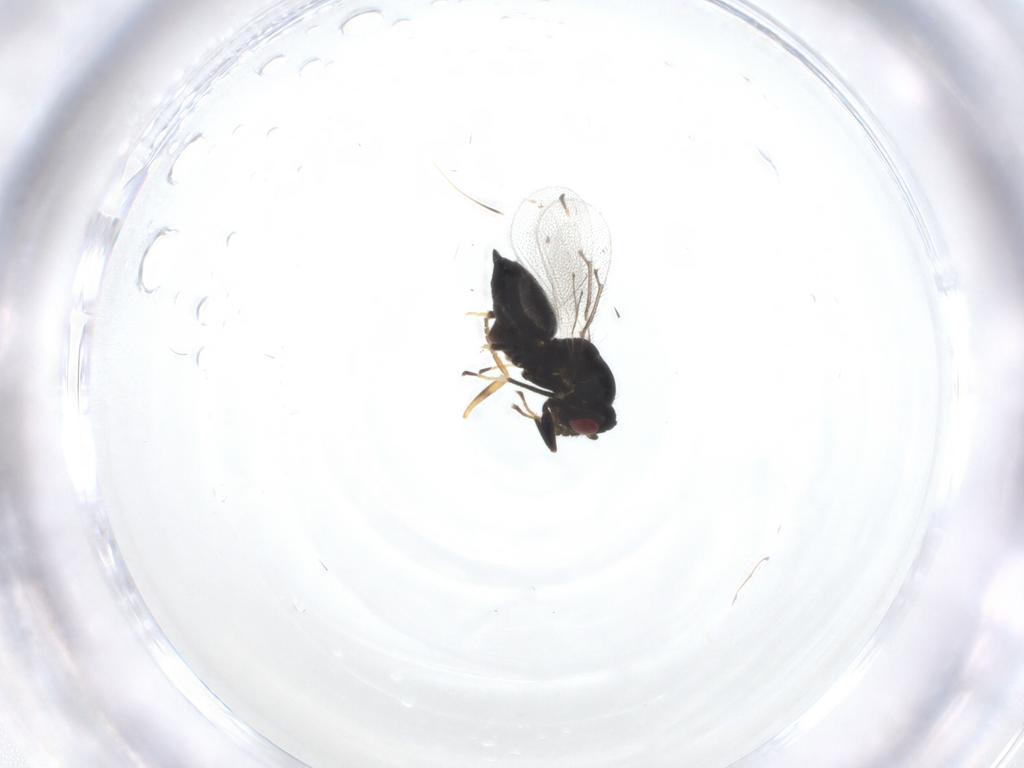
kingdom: Animalia
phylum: Arthropoda
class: Insecta
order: Hymenoptera
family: Eulophidae
